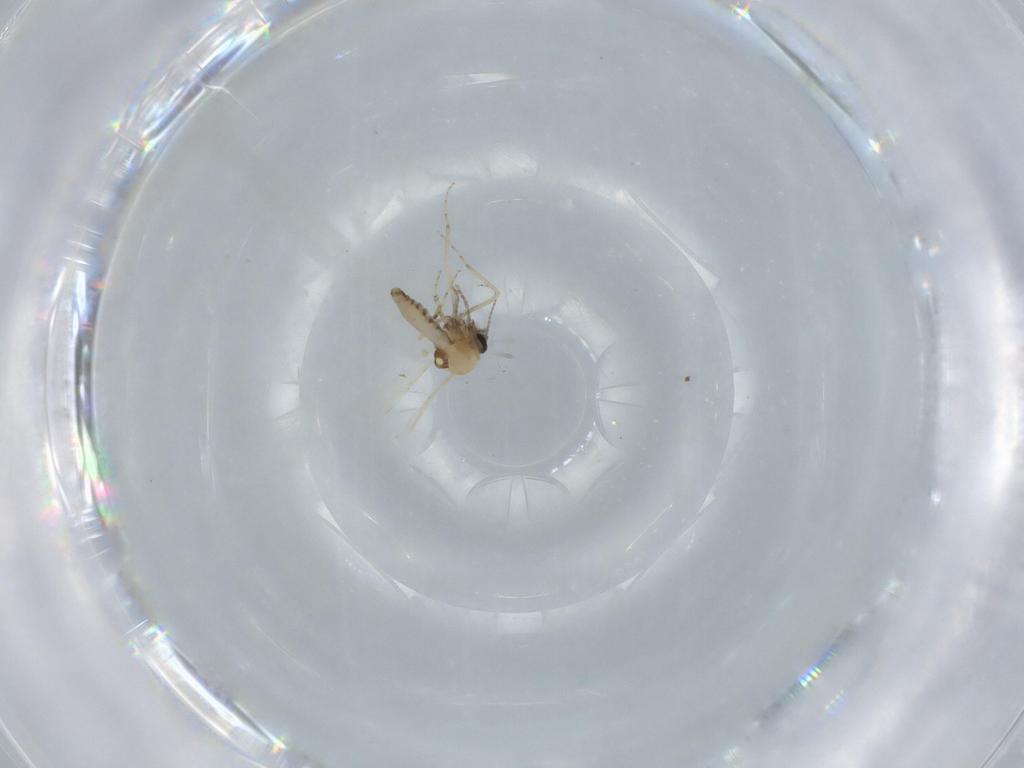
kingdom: Animalia
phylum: Arthropoda
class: Insecta
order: Diptera
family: Ceratopogonidae
